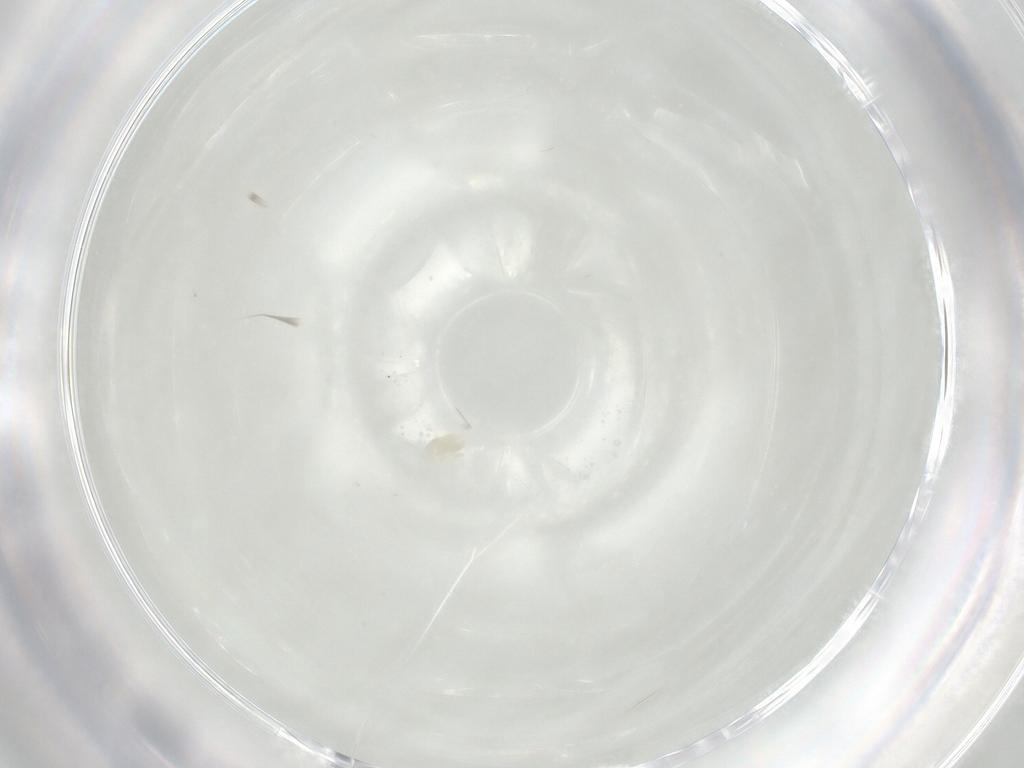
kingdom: Animalia
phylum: Arthropoda
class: Arachnida
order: Trombidiformes
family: Eupodidae
